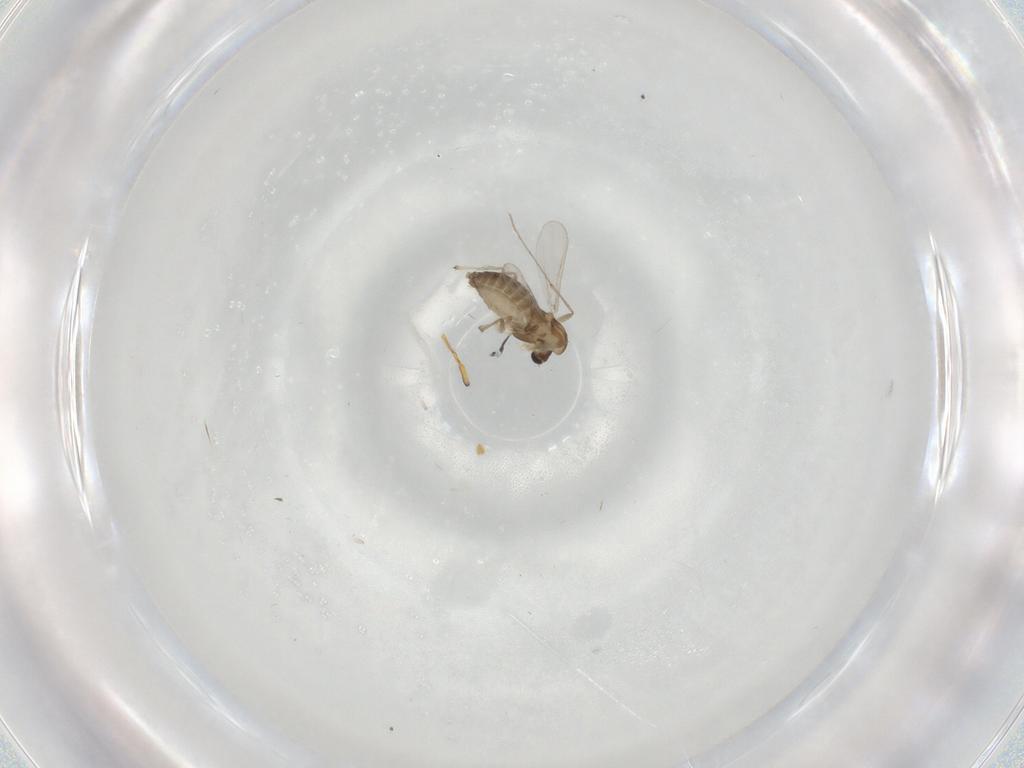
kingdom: Animalia
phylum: Arthropoda
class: Insecta
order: Diptera
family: Chironomidae
